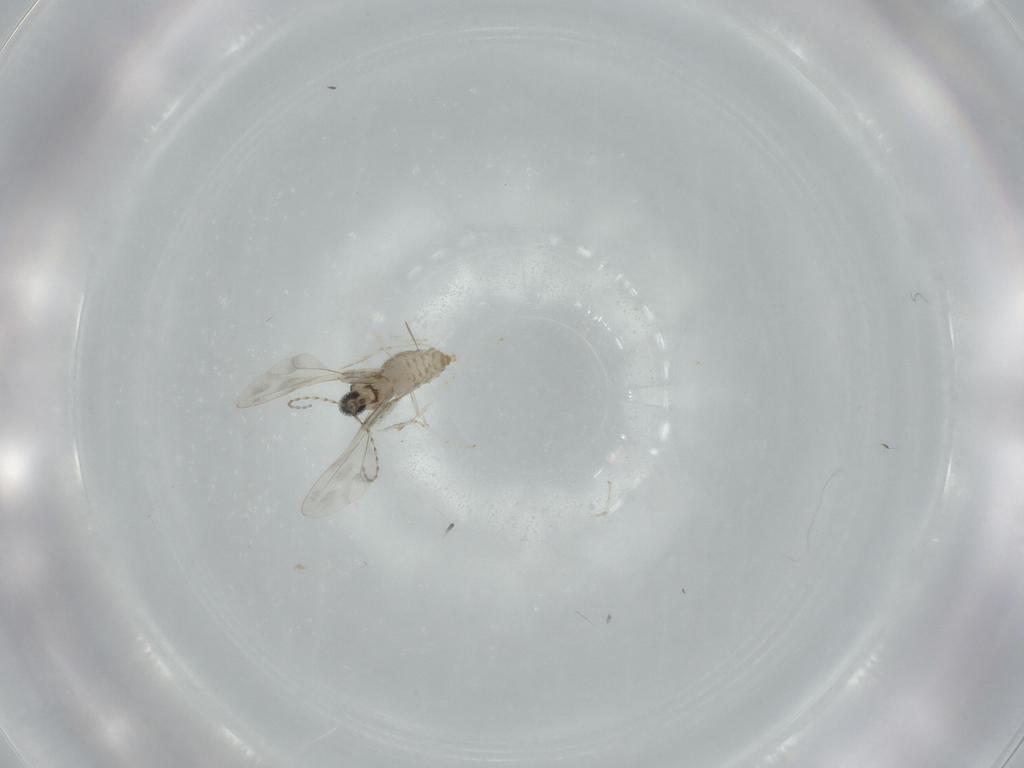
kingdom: Animalia
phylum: Arthropoda
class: Insecta
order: Diptera
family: Cecidomyiidae
